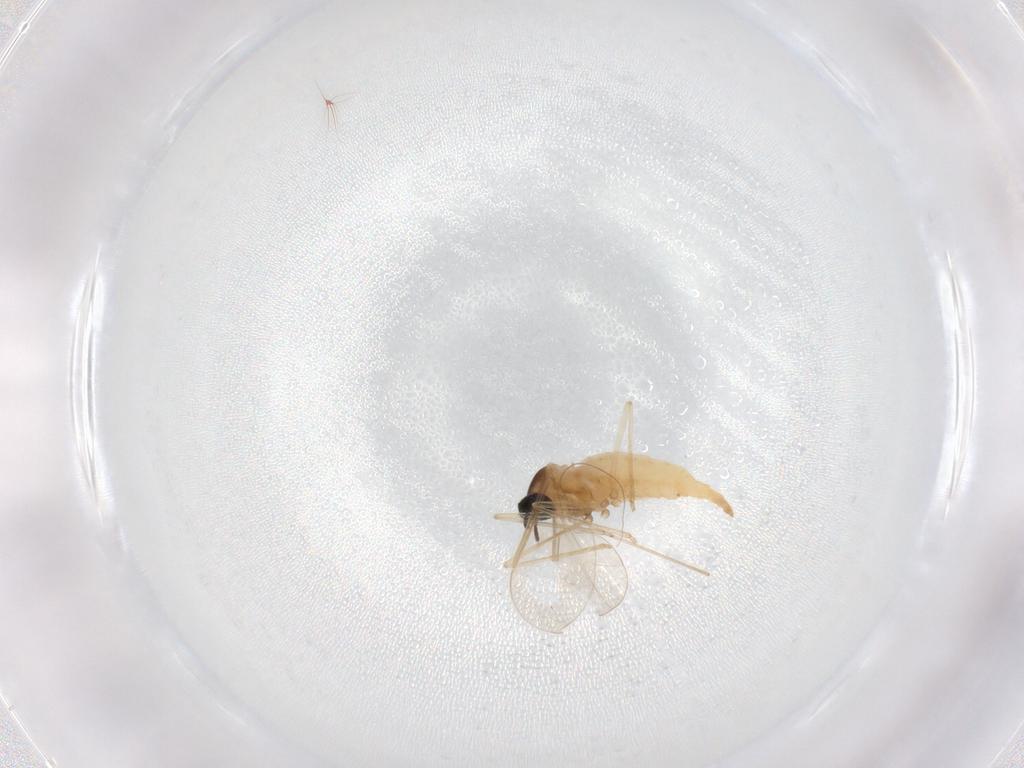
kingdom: Animalia
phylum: Arthropoda
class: Insecta
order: Diptera
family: Cecidomyiidae
